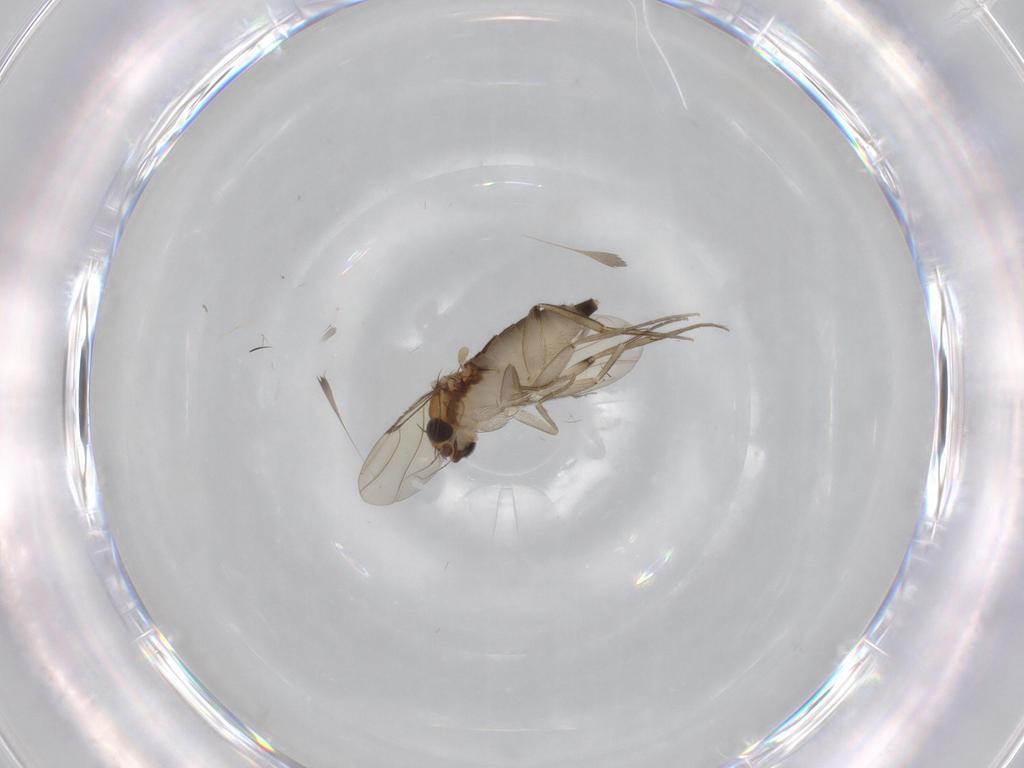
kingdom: Animalia
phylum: Arthropoda
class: Insecta
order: Diptera
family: Phoridae
